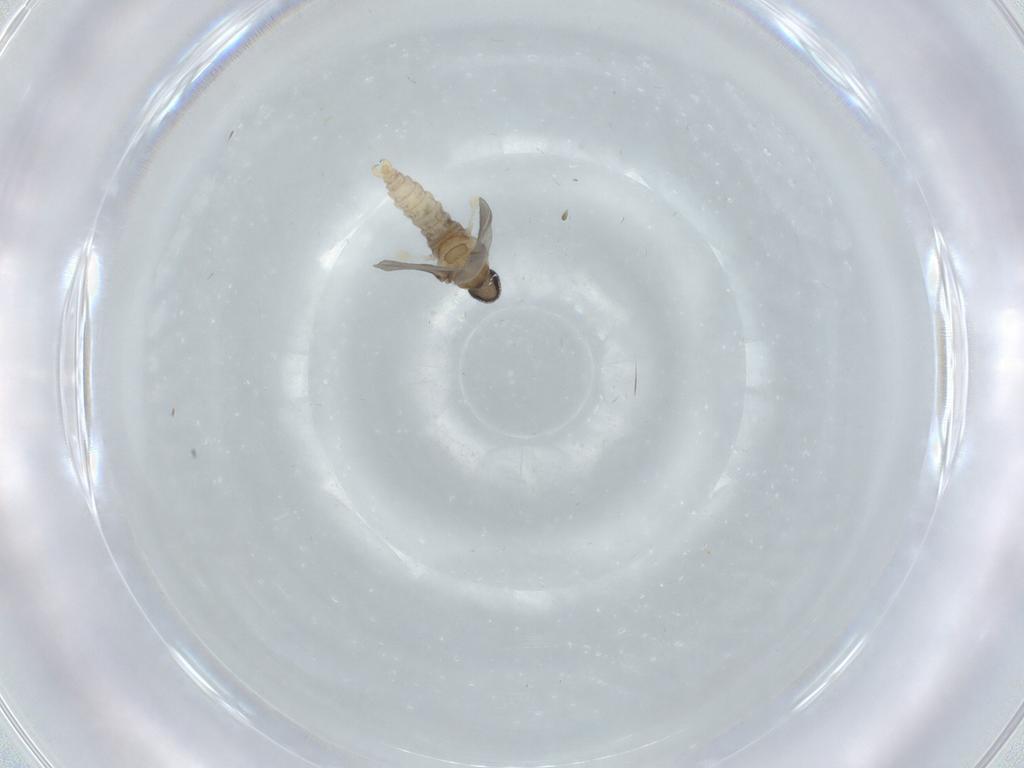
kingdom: Animalia
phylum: Arthropoda
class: Insecta
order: Diptera
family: Cecidomyiidae
